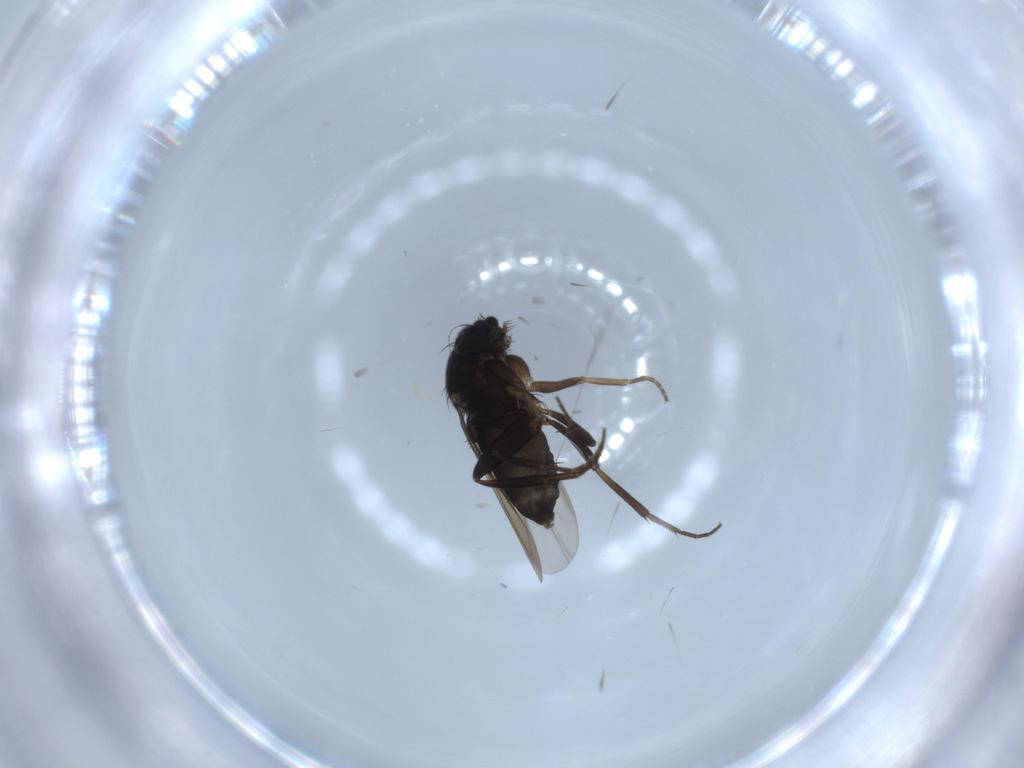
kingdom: Animalia
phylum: Arthropoda
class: Insecta
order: Diptera
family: Phoridae
